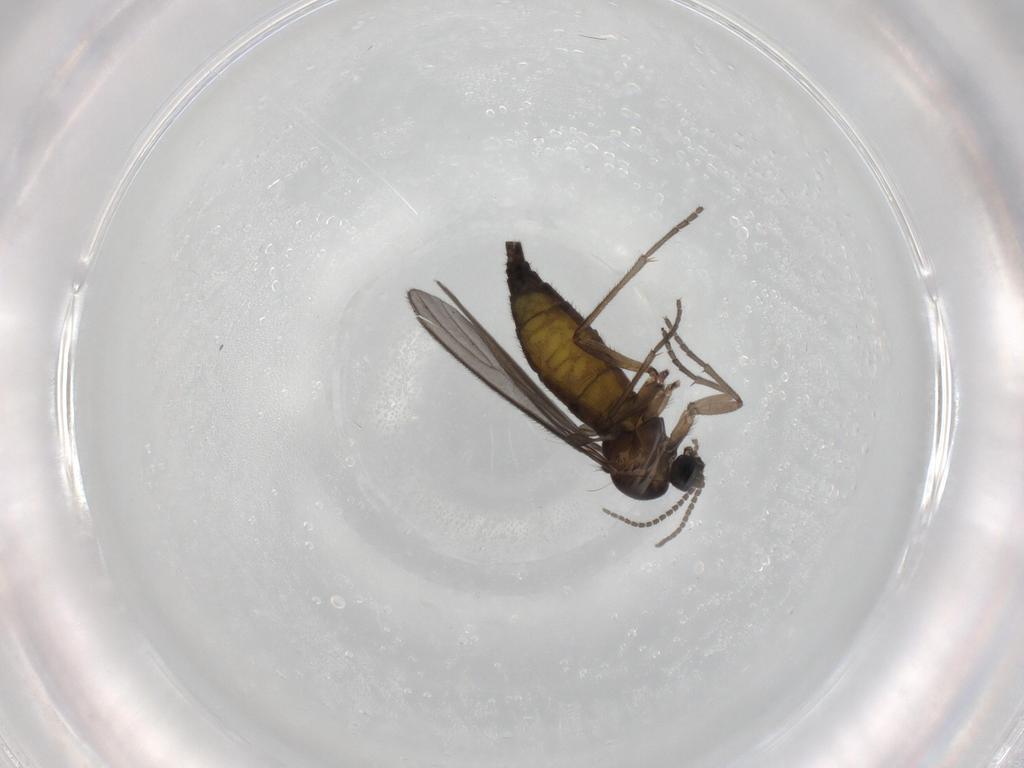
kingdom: Animalia
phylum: Arthropoda
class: Insecta
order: Diptera
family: Sciaridae
